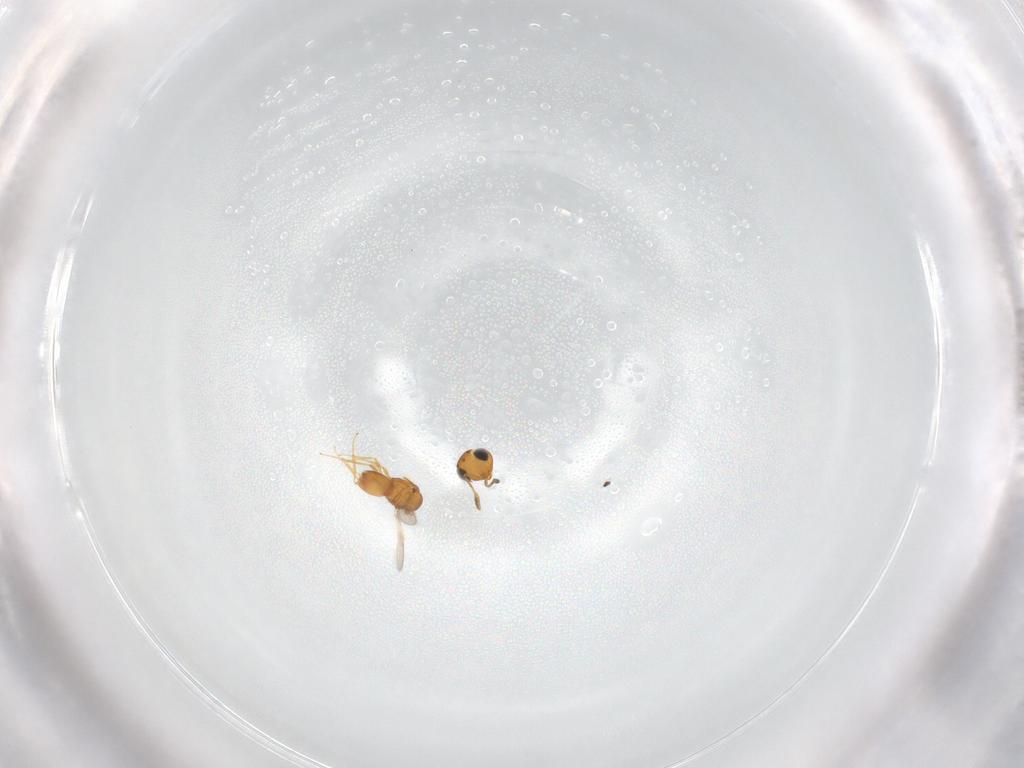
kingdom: Animalia
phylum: Arthropoda
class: Insecta
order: Hymenoptera
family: Scelionidae
